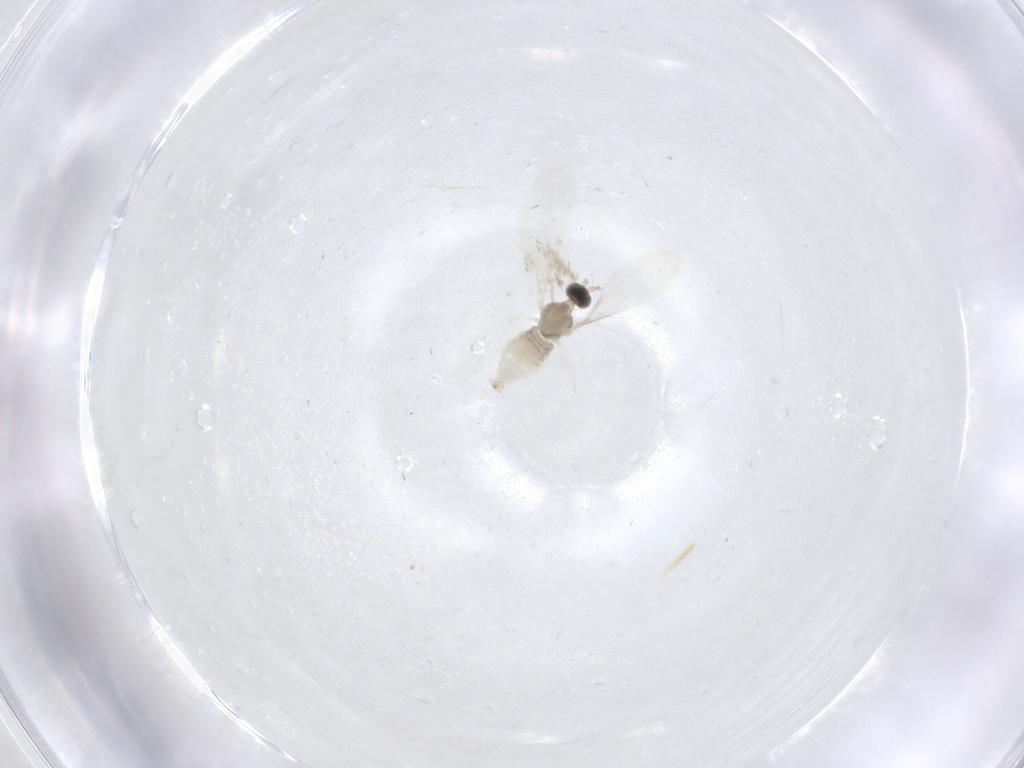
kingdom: Animalia
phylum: Arthropoda
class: Insecta
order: Diptera
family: Cecidomyiidae
